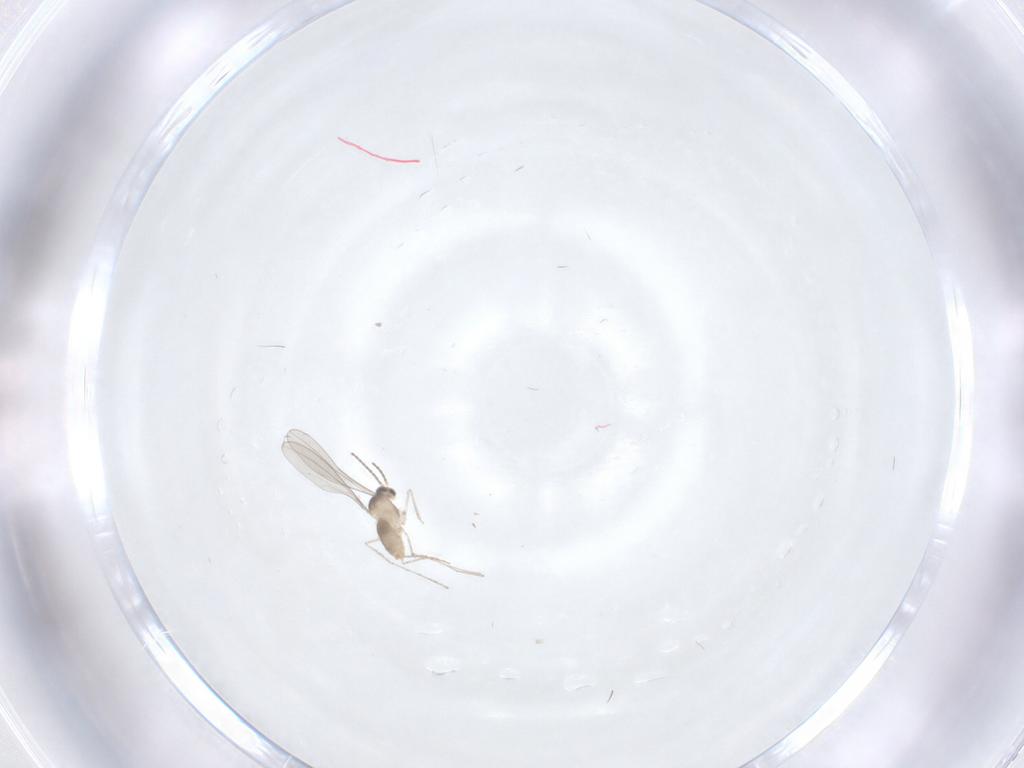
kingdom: Animalia
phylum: Arthropoda
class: Insecta
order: Diptera
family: Cecidomyiidae
